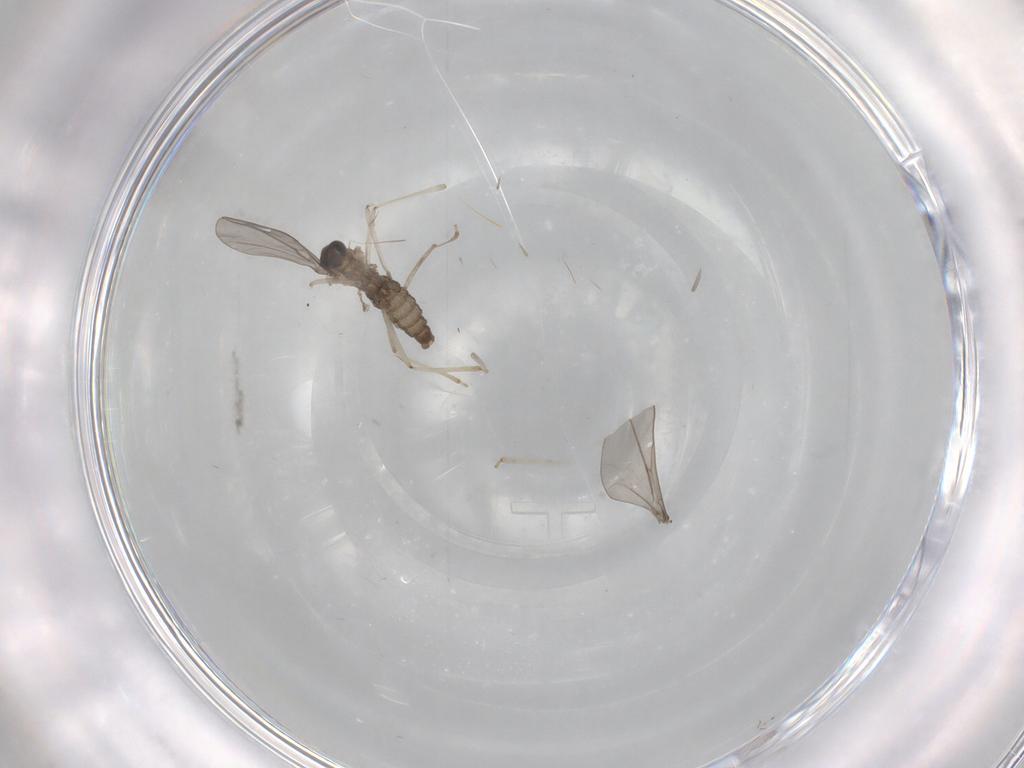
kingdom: Animalia
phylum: Arthropoda
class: Insecta
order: Diptera
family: Phoridae
